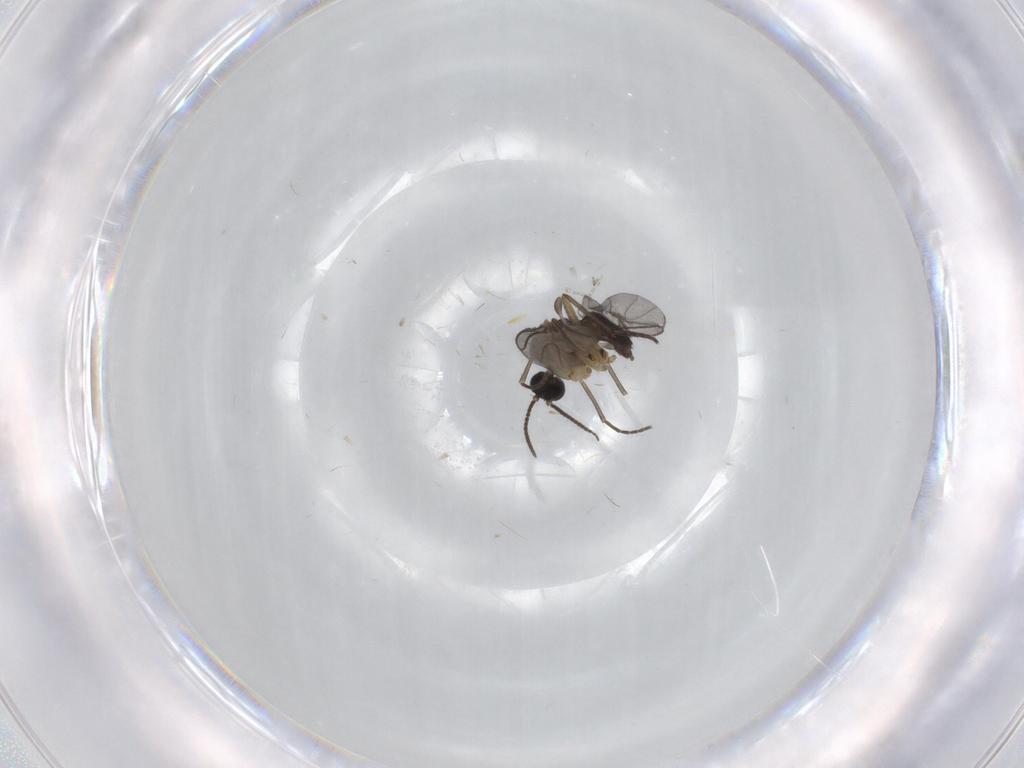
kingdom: Animalia
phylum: Arthropoda
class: Insecta
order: Diptera
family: Sciaridae
